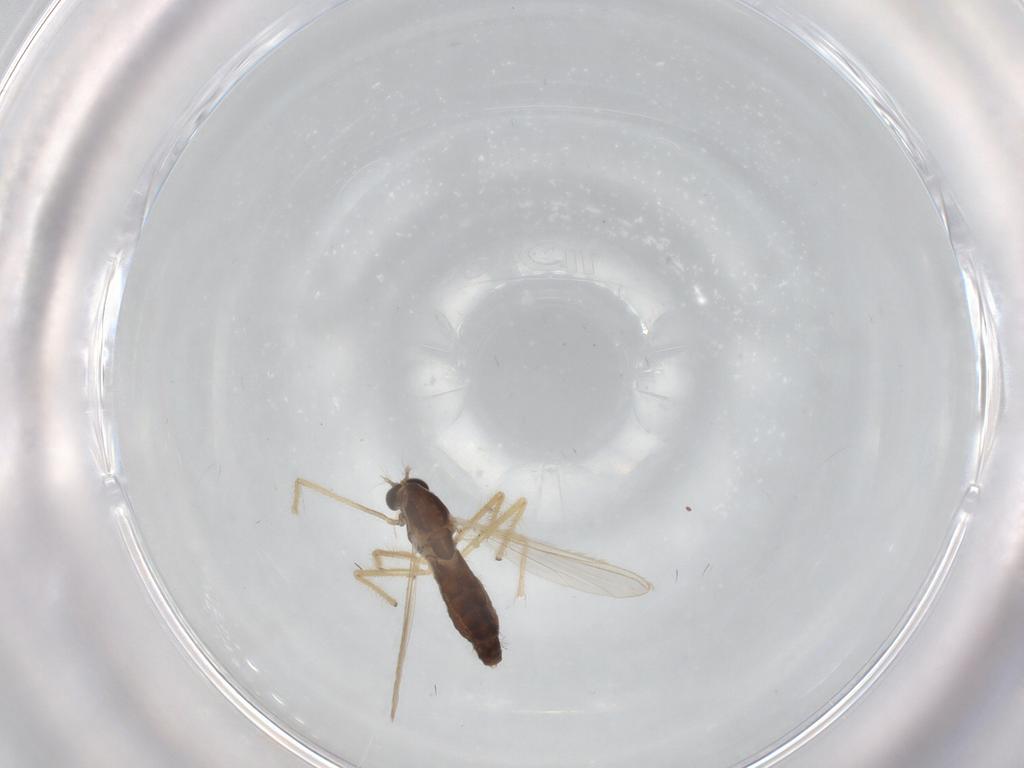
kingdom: Animalia
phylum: Arthropoda
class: Insecta
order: Diptera
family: Chironomidae
